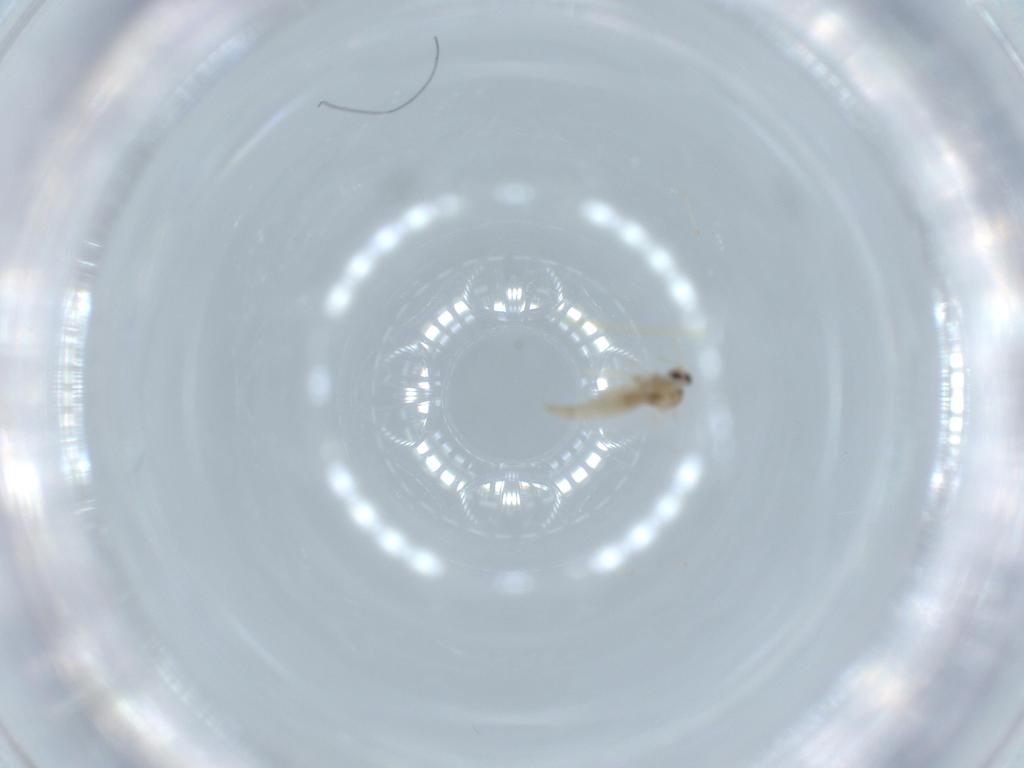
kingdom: Animalia
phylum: Arthropoda
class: Insecta
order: Diptera
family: Cecidomyiidae
